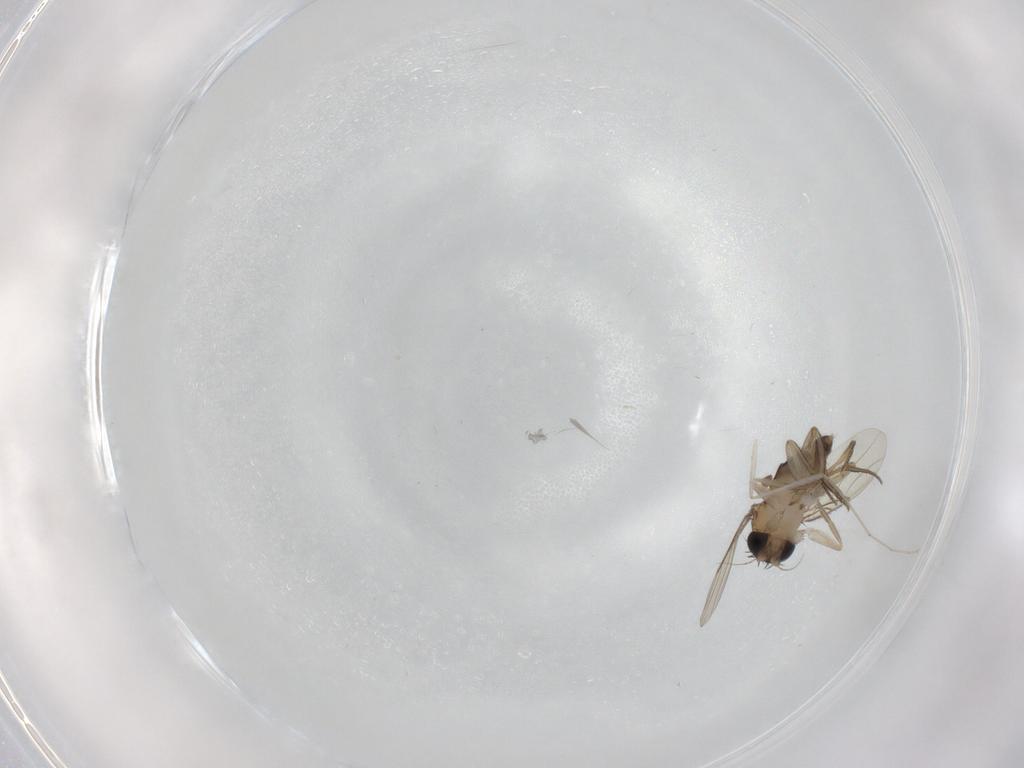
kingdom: Animalia
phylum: Arthropoda
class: Insecta
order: Diptera
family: Phoridae
